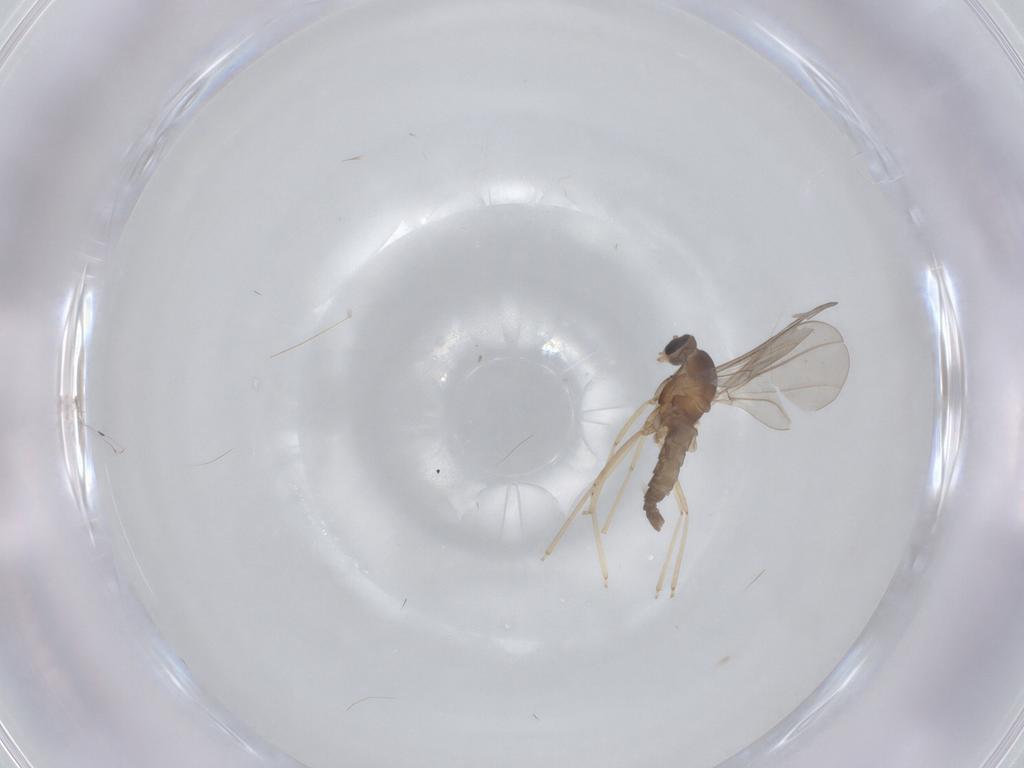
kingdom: Animalia
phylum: Arthropoda
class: Insecta
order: Diptera
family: Cecidomyiidae
